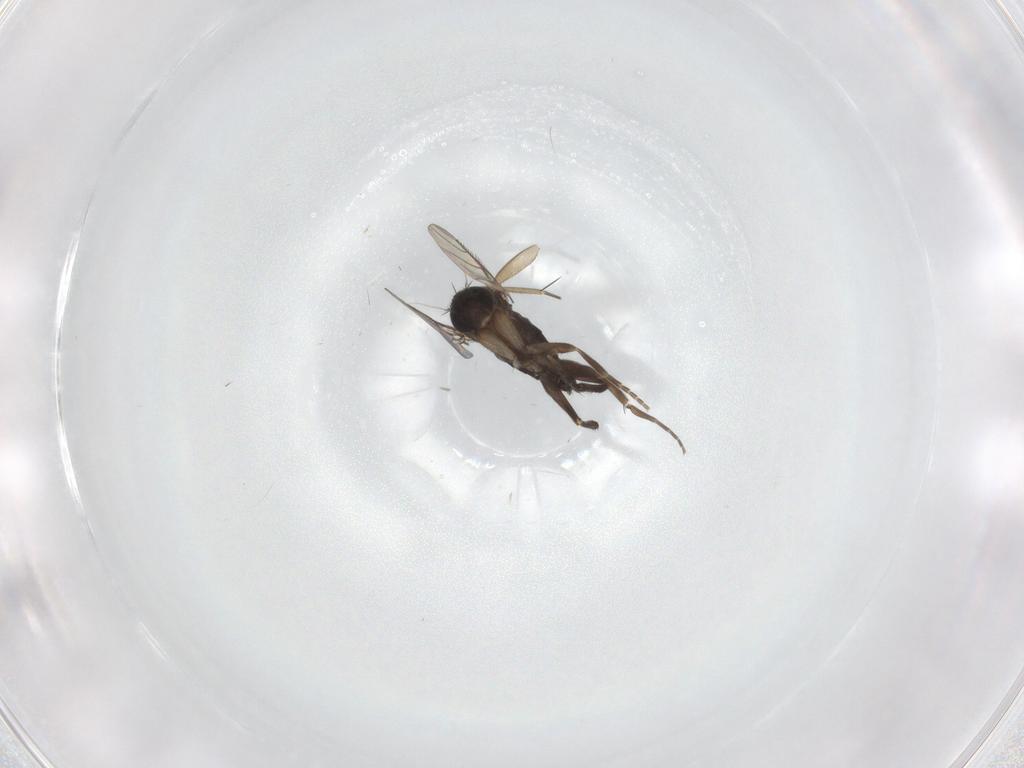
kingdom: Animalia
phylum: Arthropoda
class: Insecta
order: Diptera
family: Phoridae
